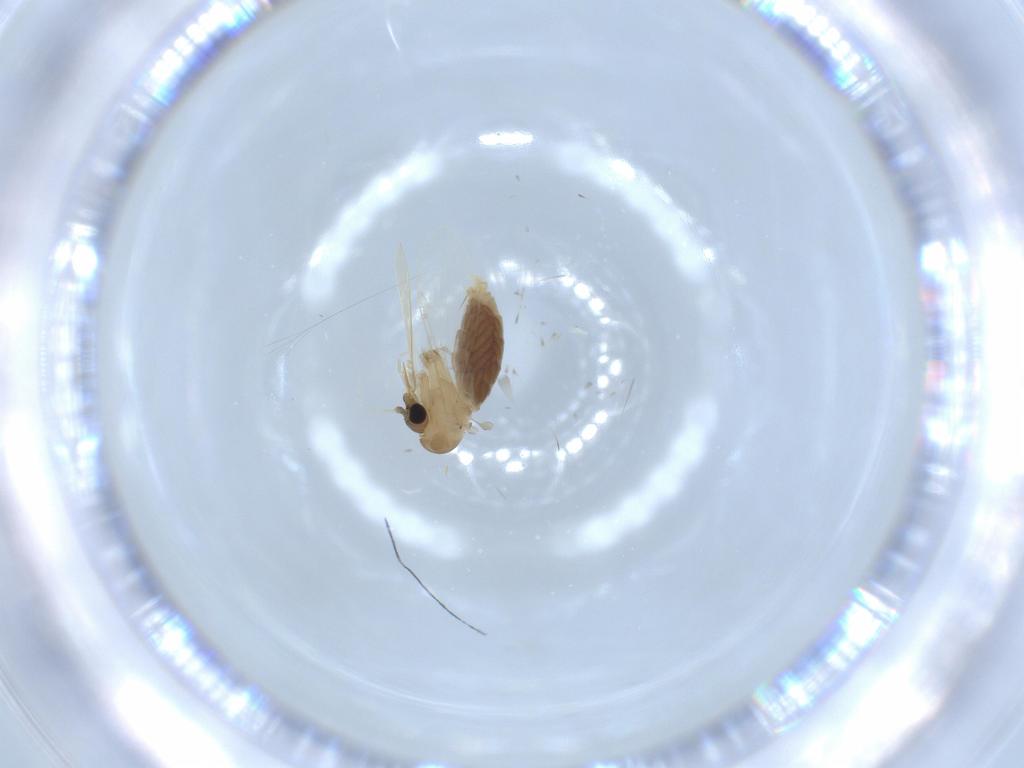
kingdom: Animalia
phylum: Arthropoda
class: Insecta
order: Diptera
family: Psychodidae
